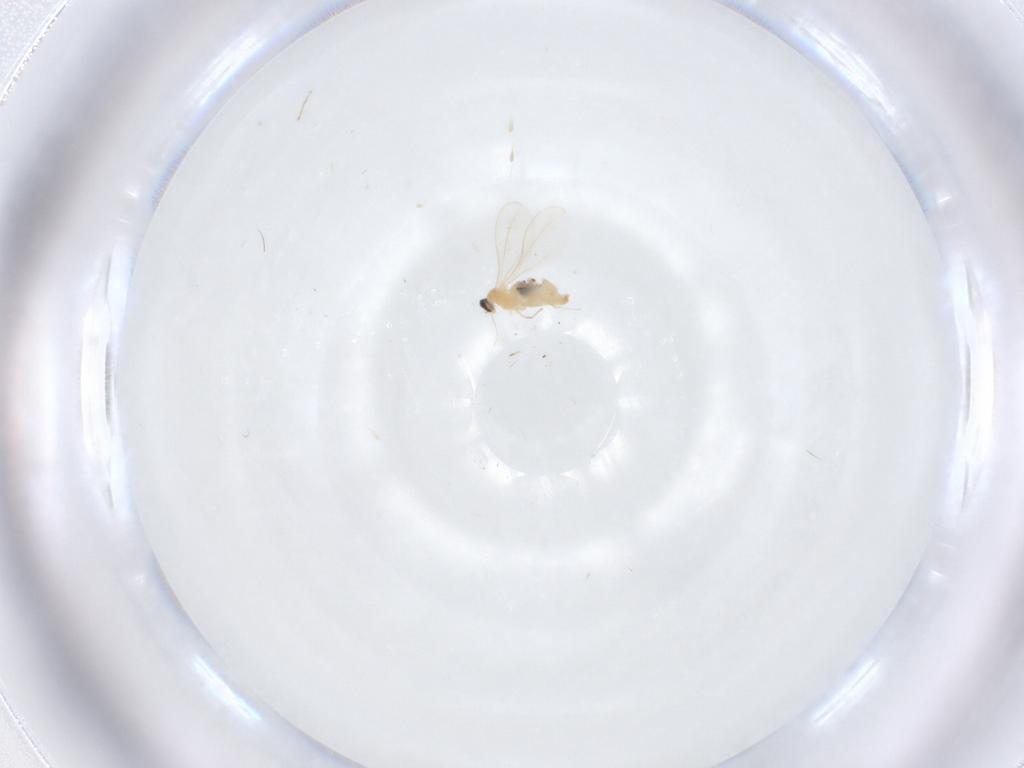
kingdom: Animalia
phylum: Arthropoda
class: Insecta
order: Diptera
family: Cecidomyiidae
